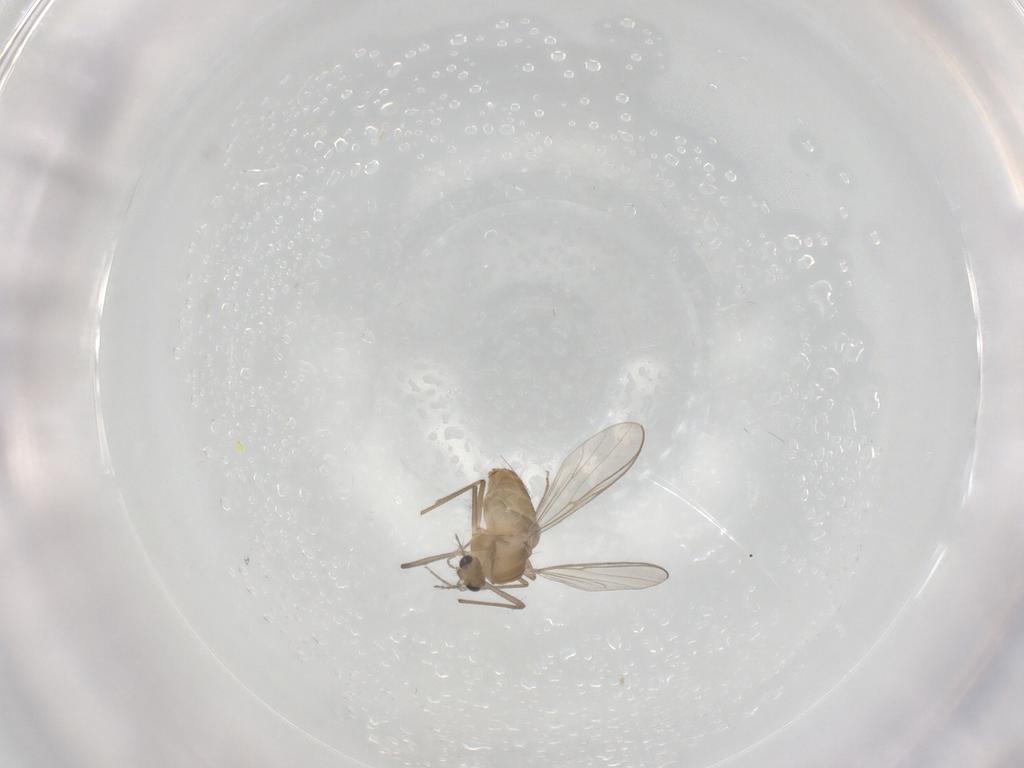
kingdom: Animalia
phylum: Arthropoda
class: Insecta
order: Diptera
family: Chironomidae
